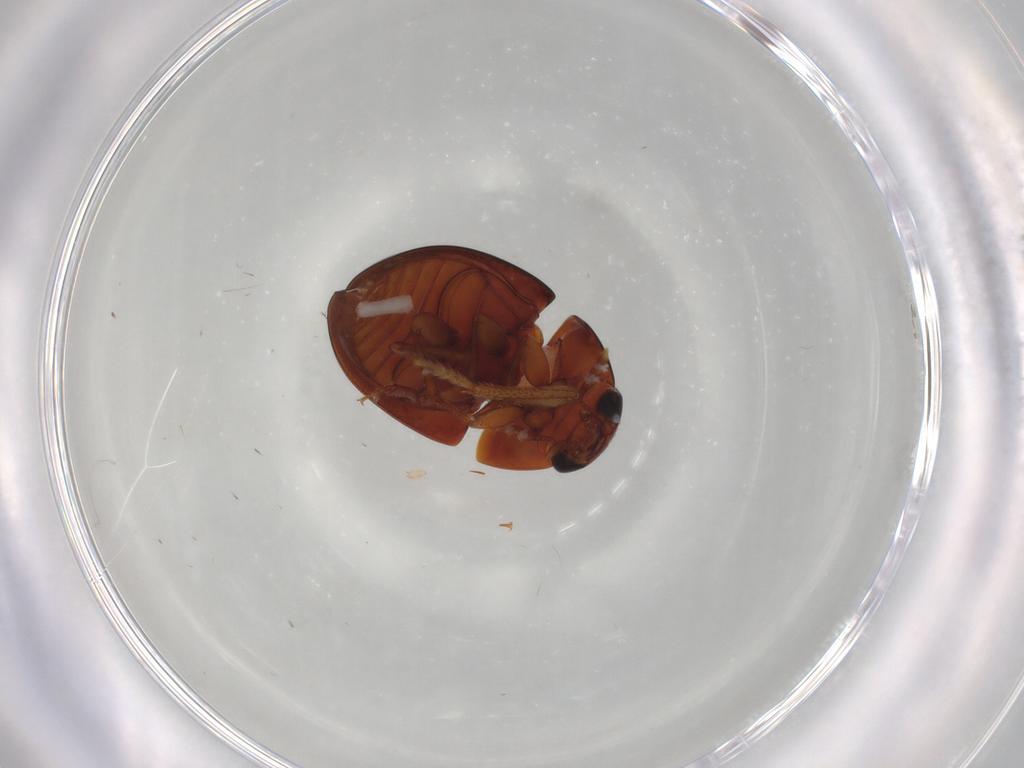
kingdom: Animalia
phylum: Arthropoda
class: Insecta
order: Coleoptera
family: Phalacridae
